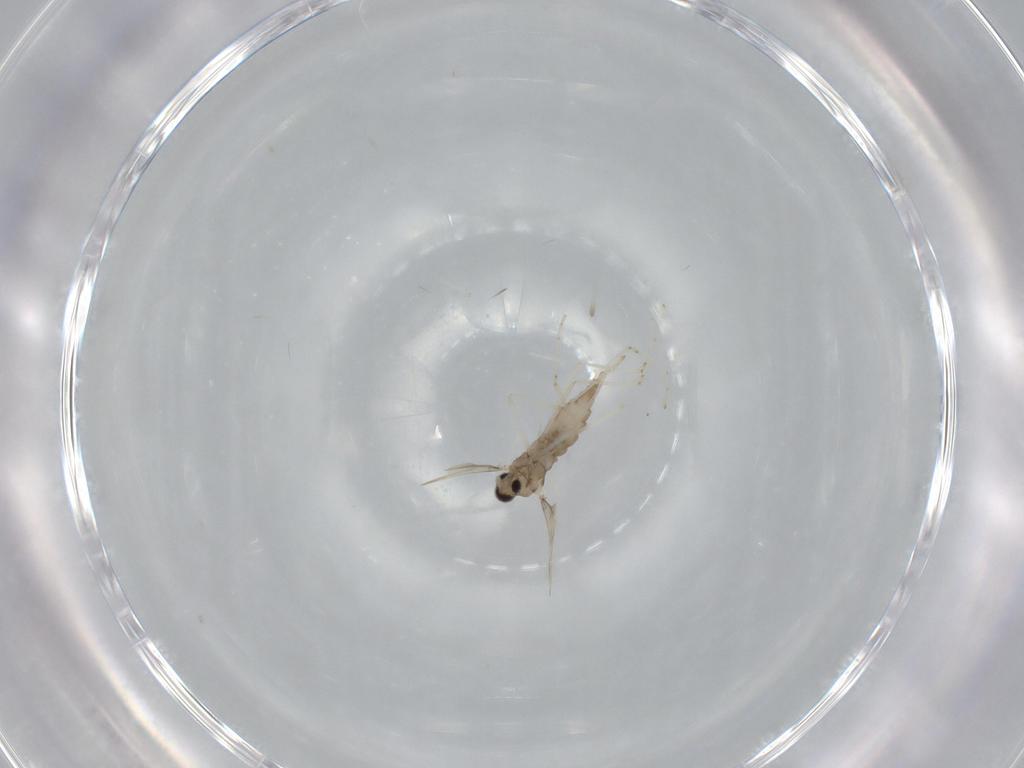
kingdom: Animalia
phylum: Arthropoda
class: Insecta
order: Diptera
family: Cecidomyiidae
